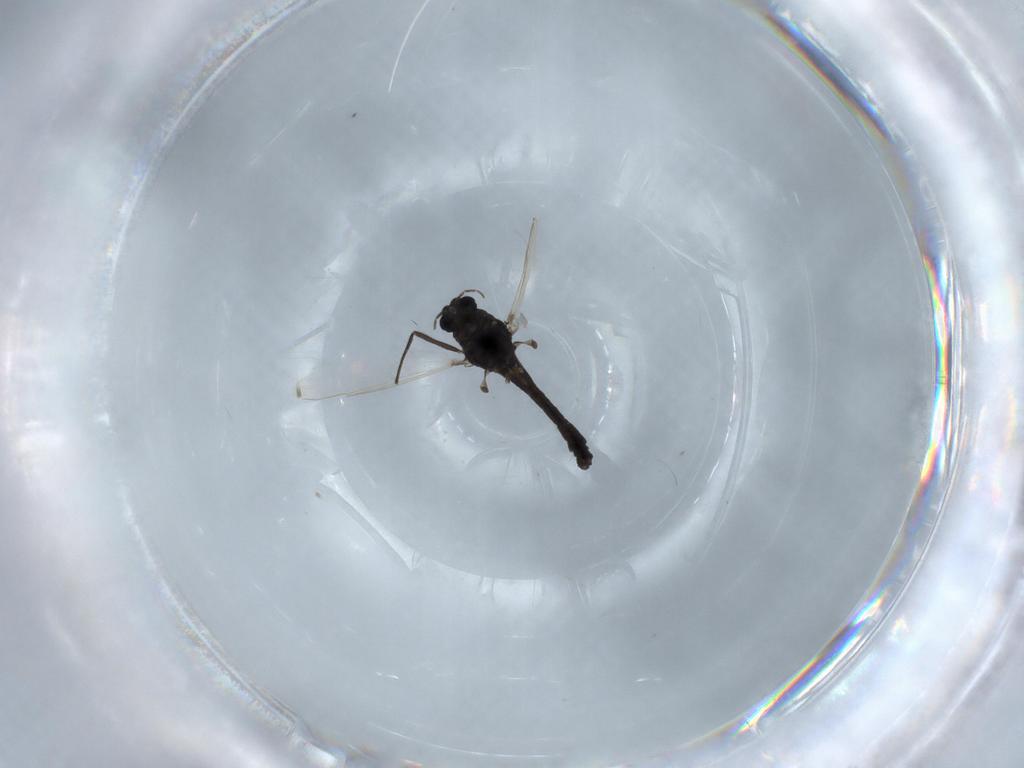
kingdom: Animalia
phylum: Arthropoda
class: Insecta
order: Diptera
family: Chironomidae
